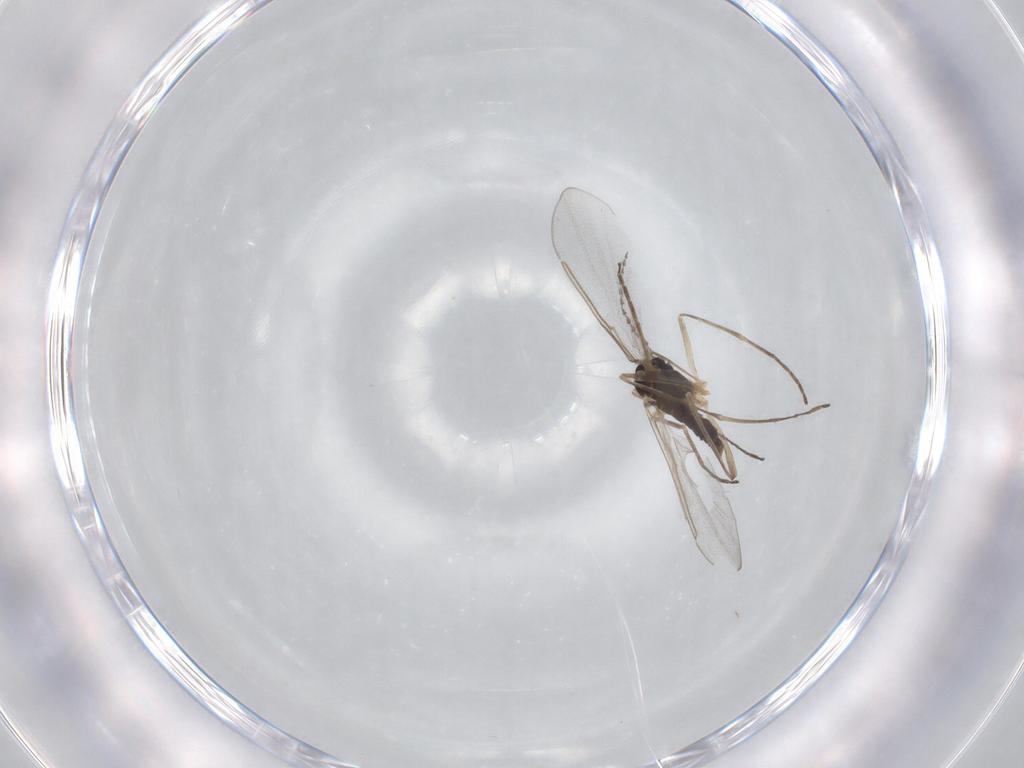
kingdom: Animalia
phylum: Arthropoda
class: Insecta
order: Diptera
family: Cecidomyiidae
